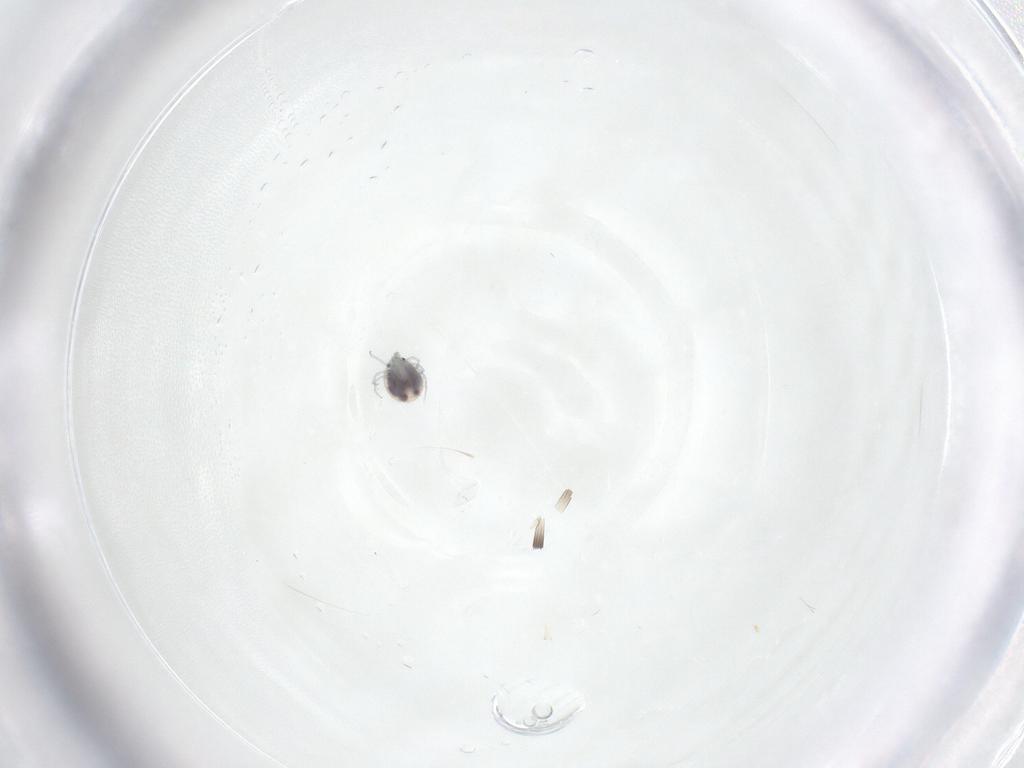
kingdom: Animalia
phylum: Arthropoda
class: Arachnida
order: Trombidiformes
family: Pionidae
